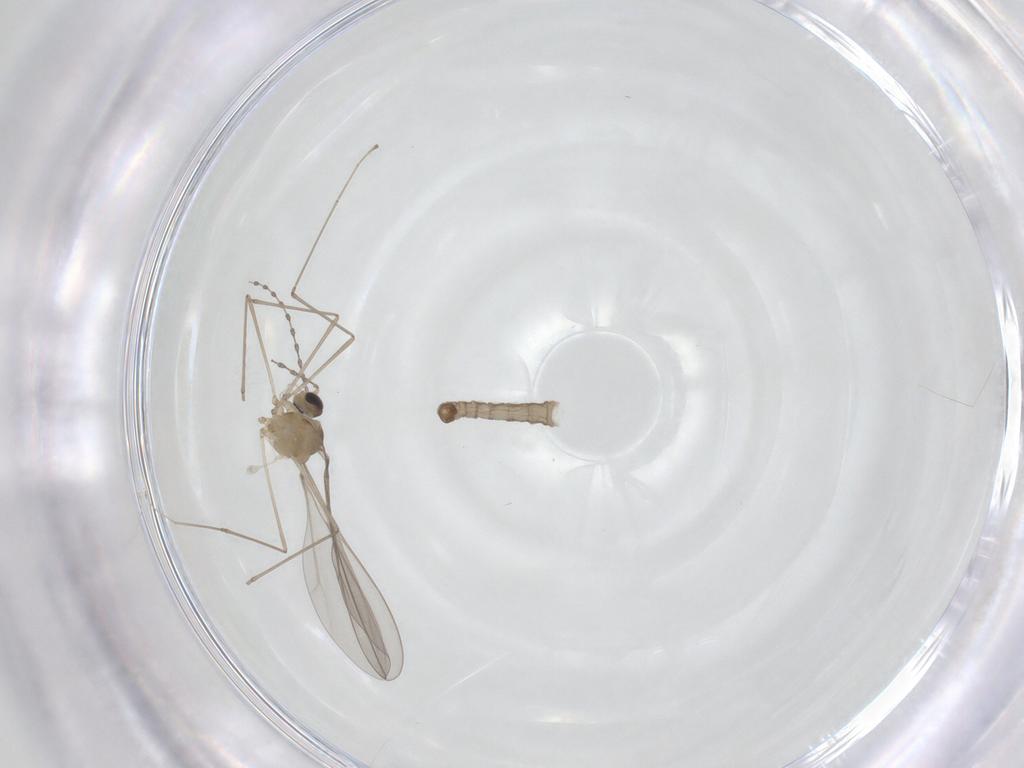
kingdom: Animalia
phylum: Arthropoda
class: Insecta
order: Diptera
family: Cecidomyiidae
